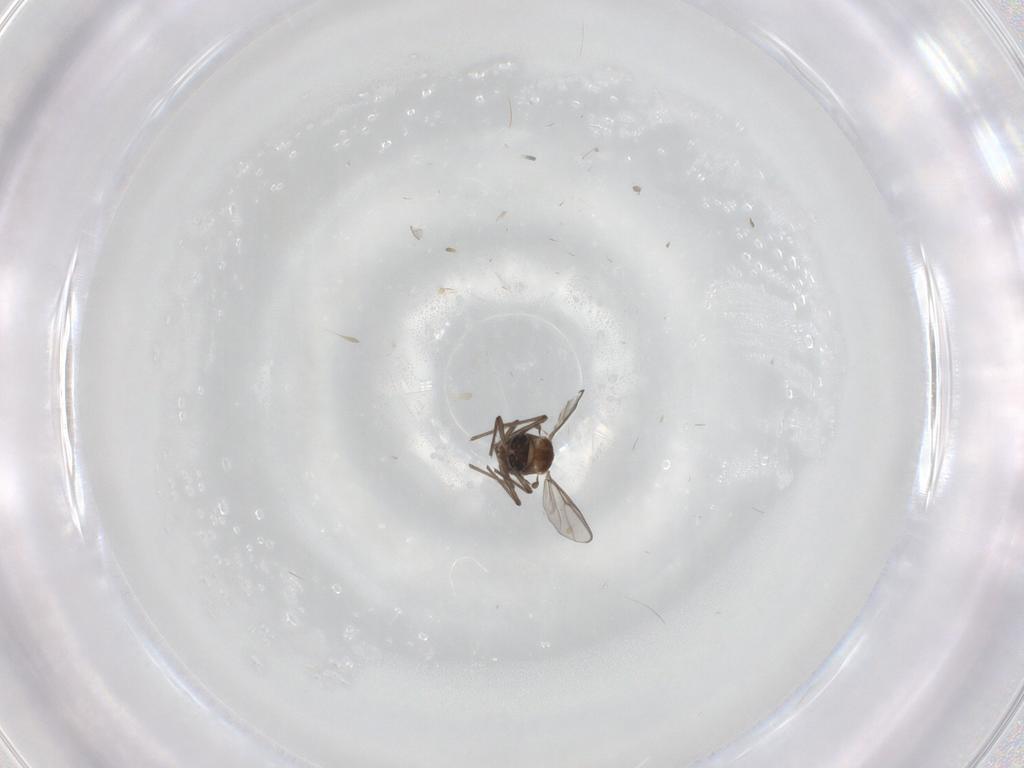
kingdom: Animalia
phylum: Arthropoda
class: Insecta
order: Diptera
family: Chironomidae
